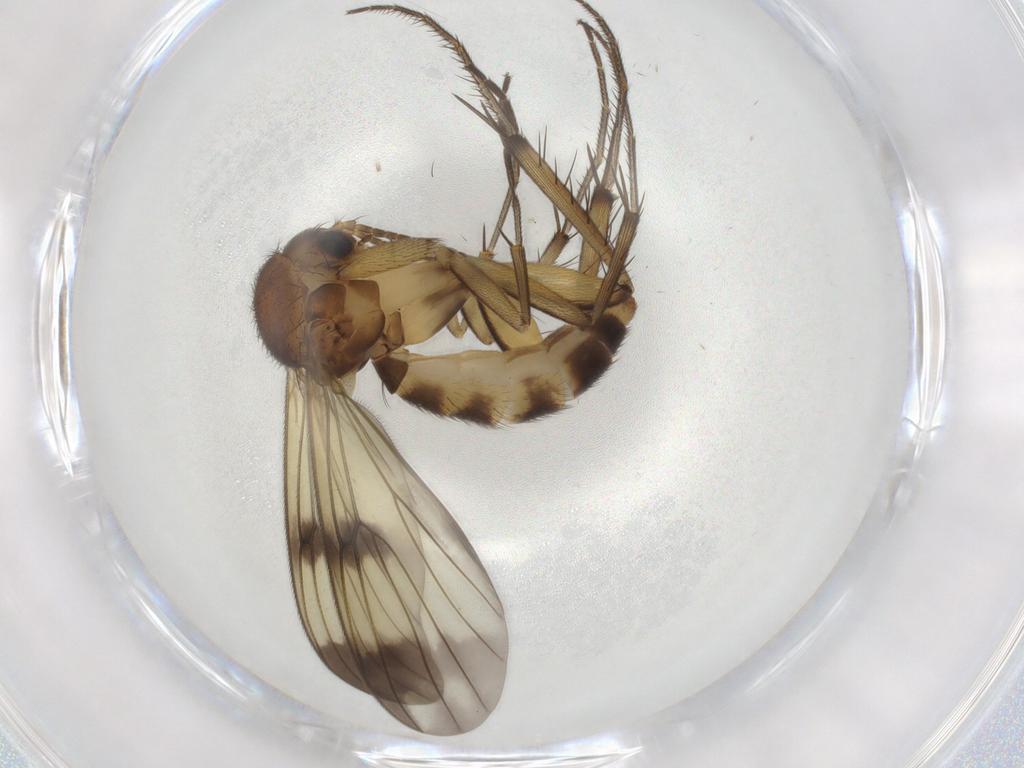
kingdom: Animalia
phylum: Arthropoda
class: Insecta
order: Diptera
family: Mycetophilidae
